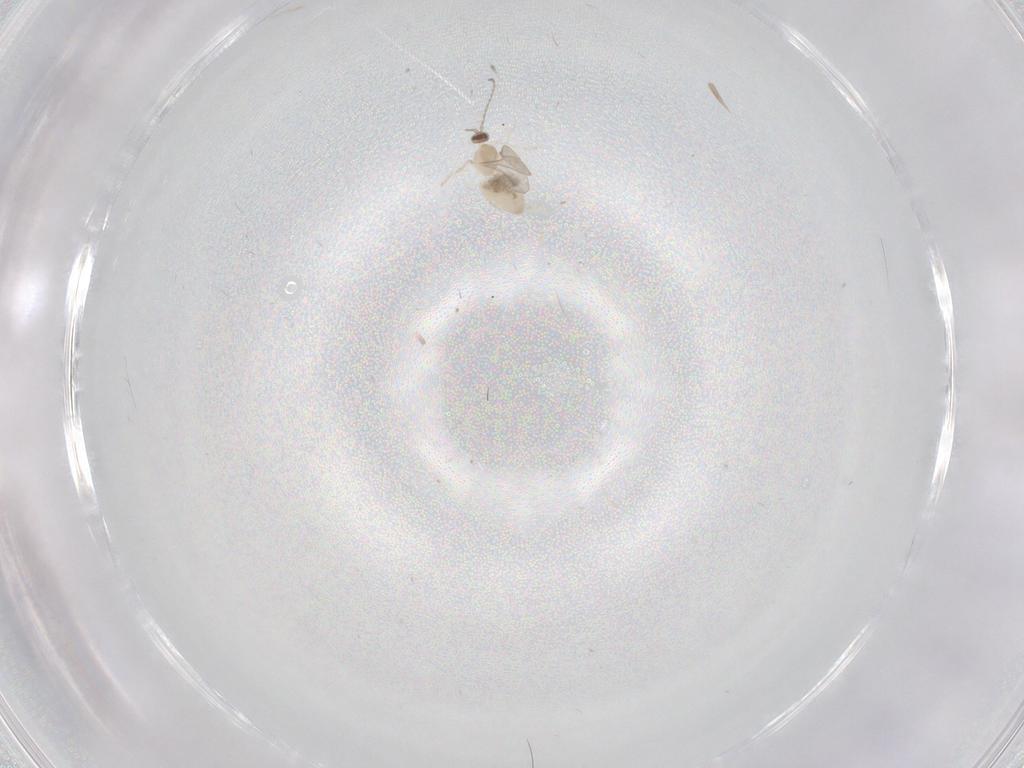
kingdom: Animalia
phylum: Arthropoda
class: Insecta
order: Diptera
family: Cecidomyiidae
